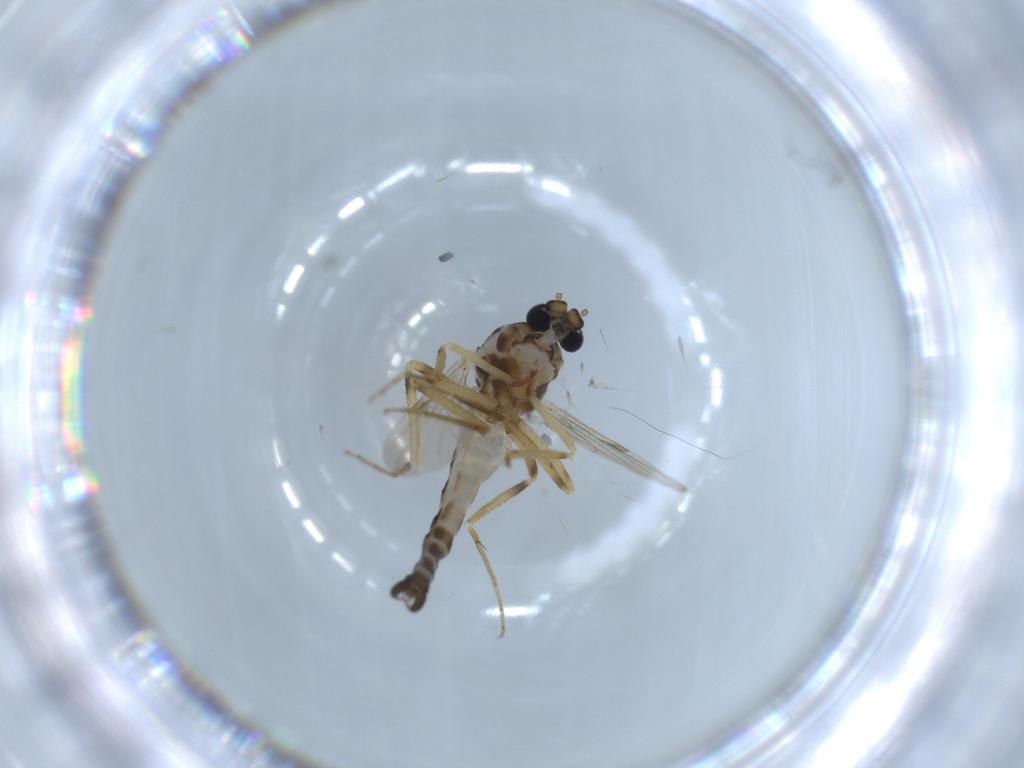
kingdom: Animalia
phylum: Arthropoda
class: Insecta
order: Diptera
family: Ceratopogonidae
